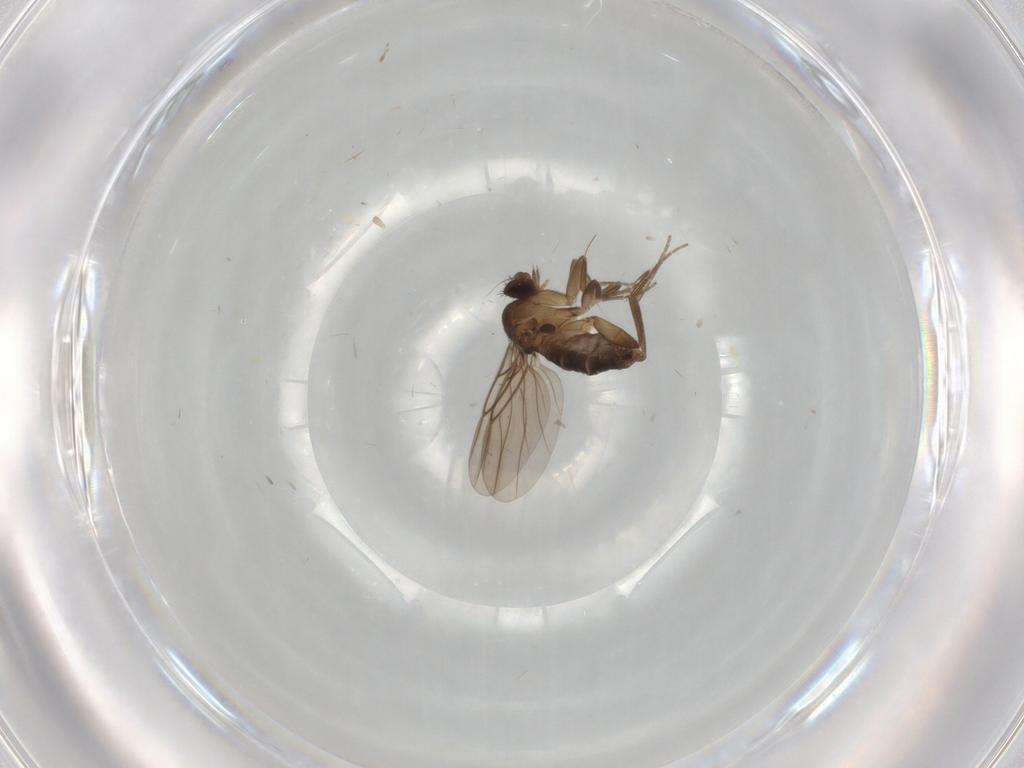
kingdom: Animalia
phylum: Arthropoda
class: Insecta
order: Diptera
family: Phoridae
